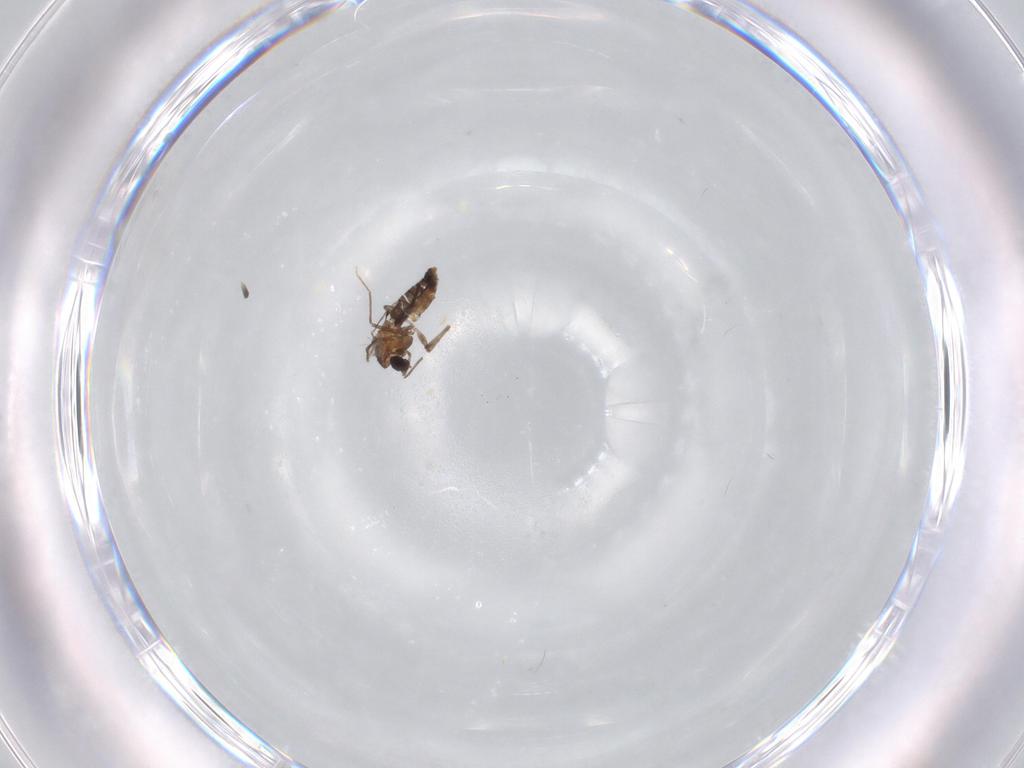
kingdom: Animalia
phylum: Arthropoda
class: Insecta
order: Diptera
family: Chironomidae
